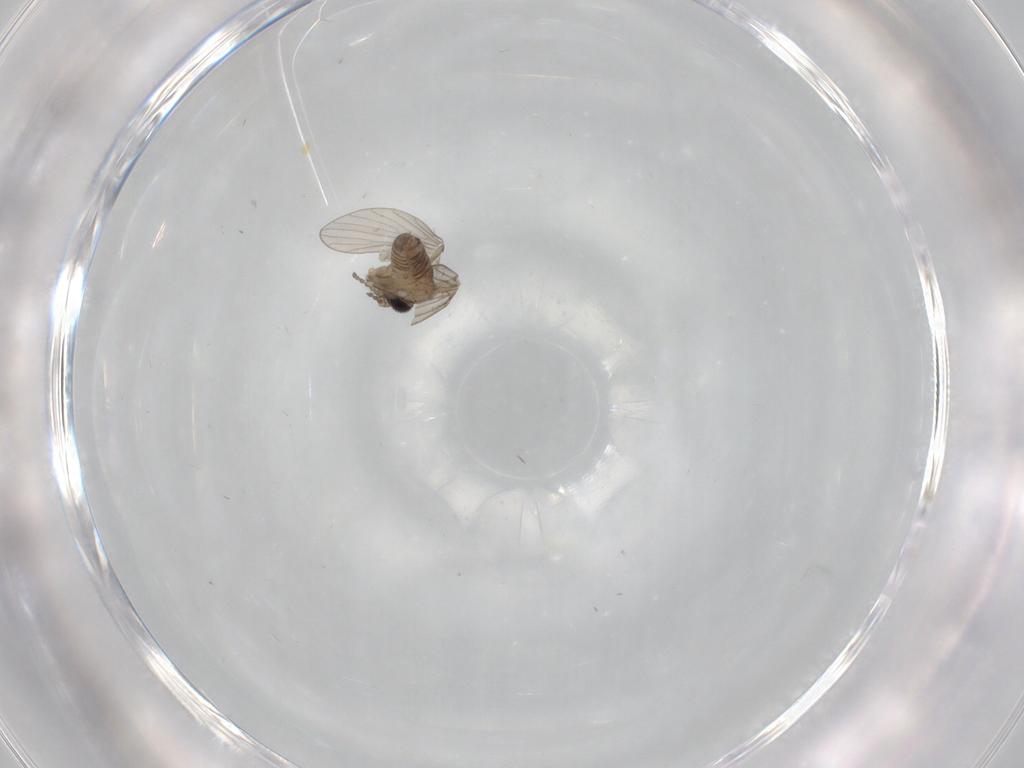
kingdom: Animalia
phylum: Arthropoda
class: Insecta
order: Diptera
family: Psychodidae
